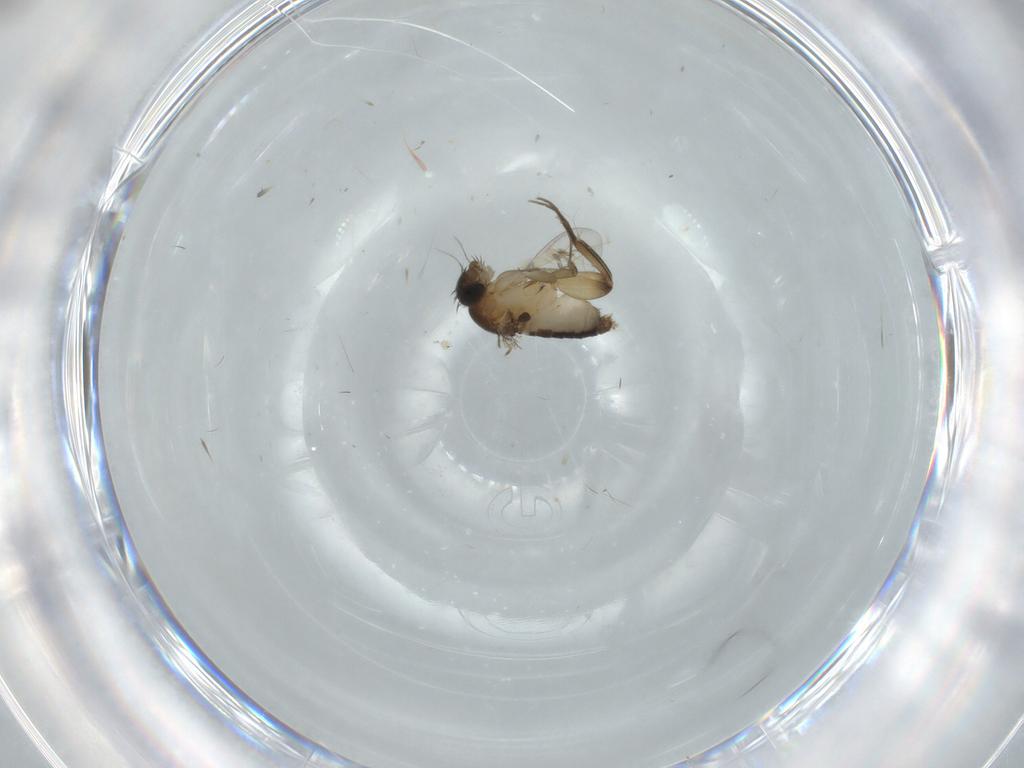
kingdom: Animalia
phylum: Arthropoda
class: Insecta
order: Diptera
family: Phoridae
